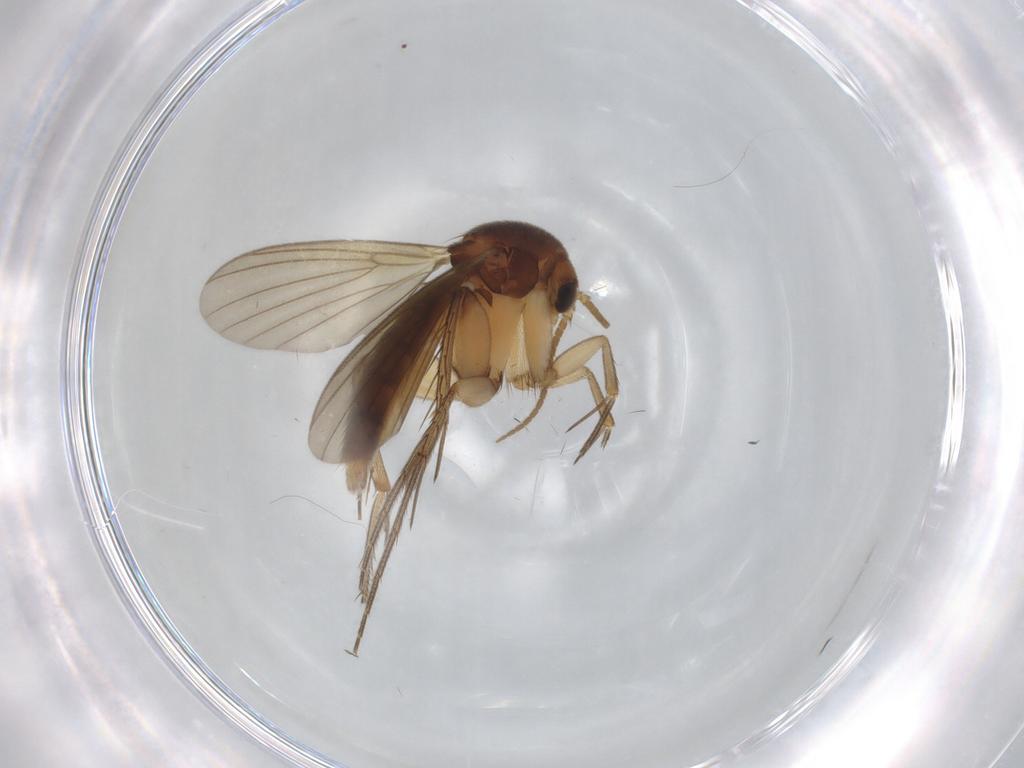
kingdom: Animalia
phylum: Arthropoda
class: Insecta
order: Diptera
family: Mycetophilidae
